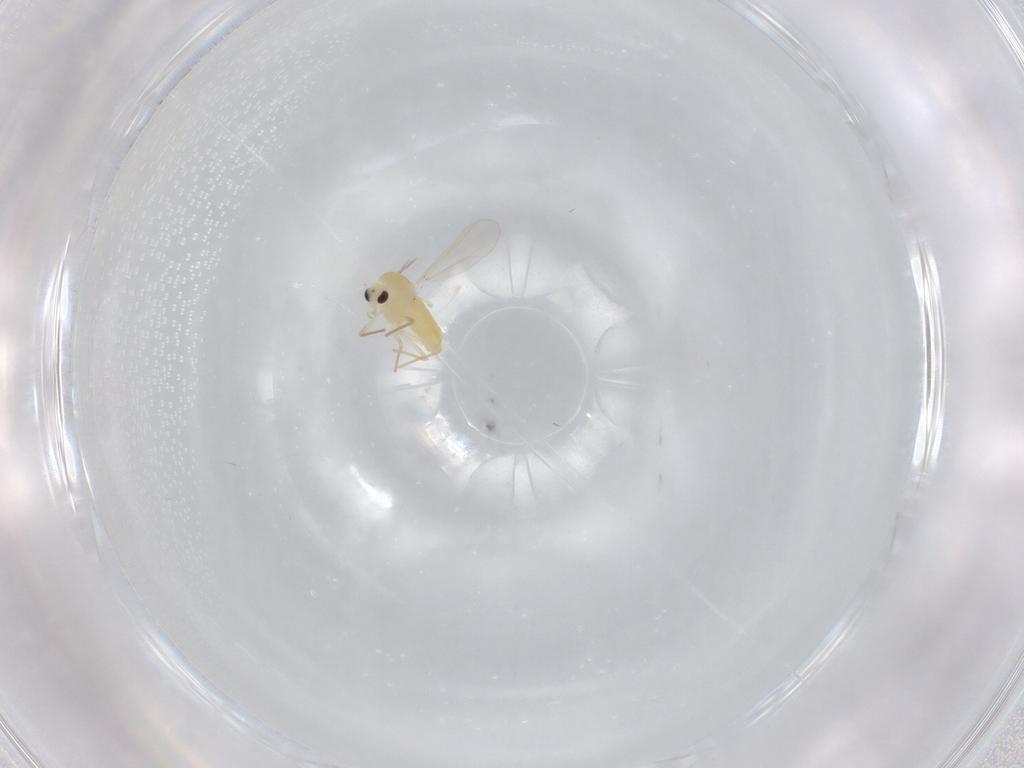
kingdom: Animalia
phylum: Arthropoda
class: Insecta
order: Diptera
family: Chironomidae
